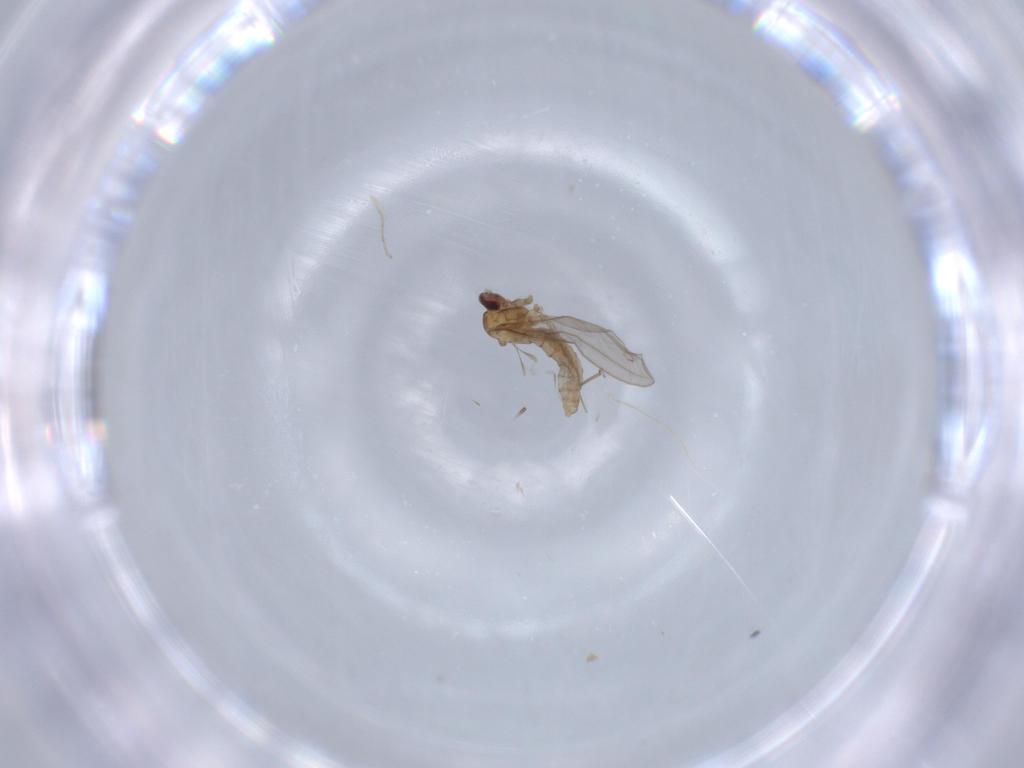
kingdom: Animalia
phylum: Arthropoda
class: Insecta
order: Diptera
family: Cecidomyiidae
